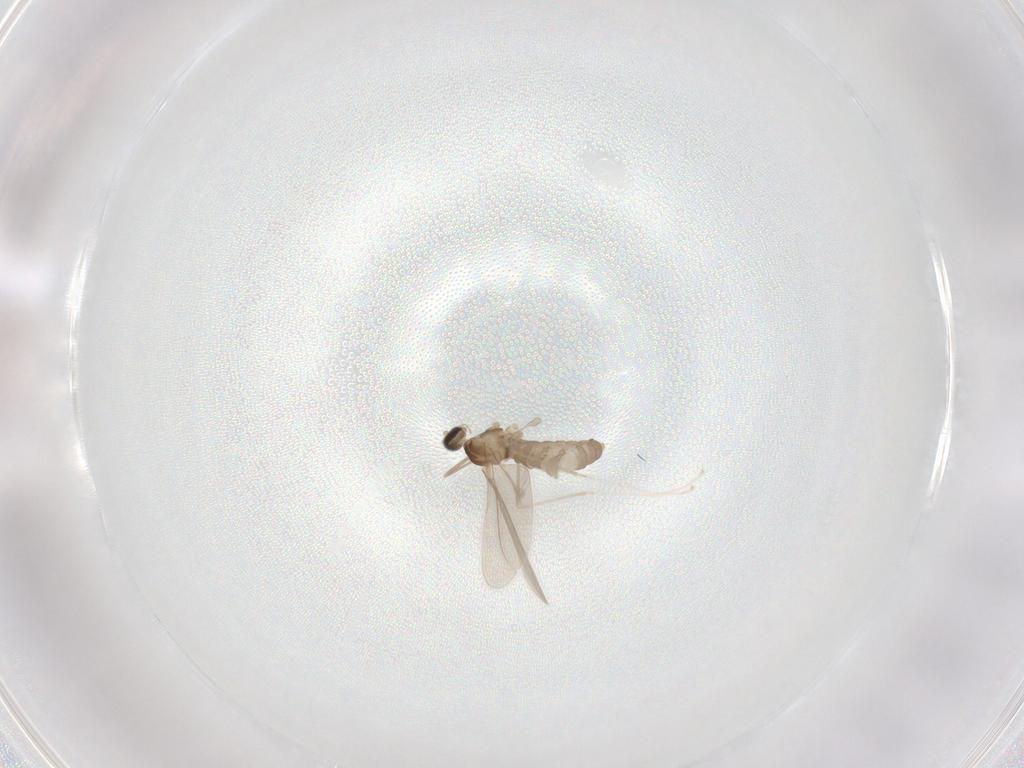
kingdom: Animalia
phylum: Arthropoda
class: Insecta
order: Diptera
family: Cecidomyiidae
